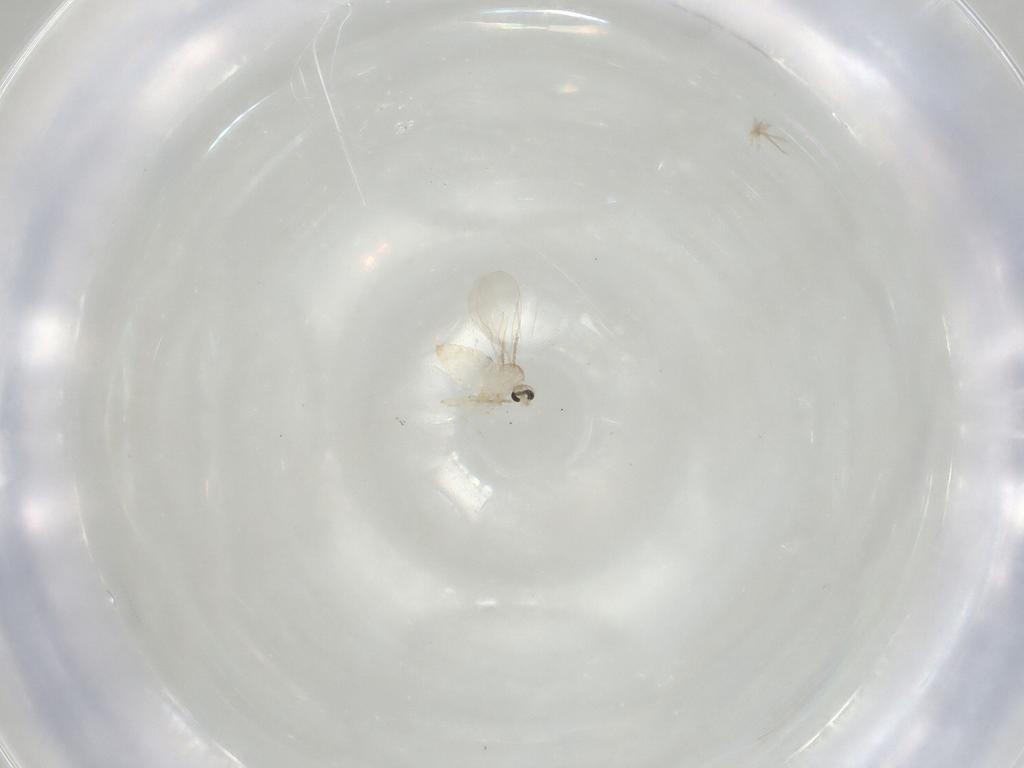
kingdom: Animalia
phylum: Arthropoda
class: Insecta
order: Diptera
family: Cecidomyiidae
